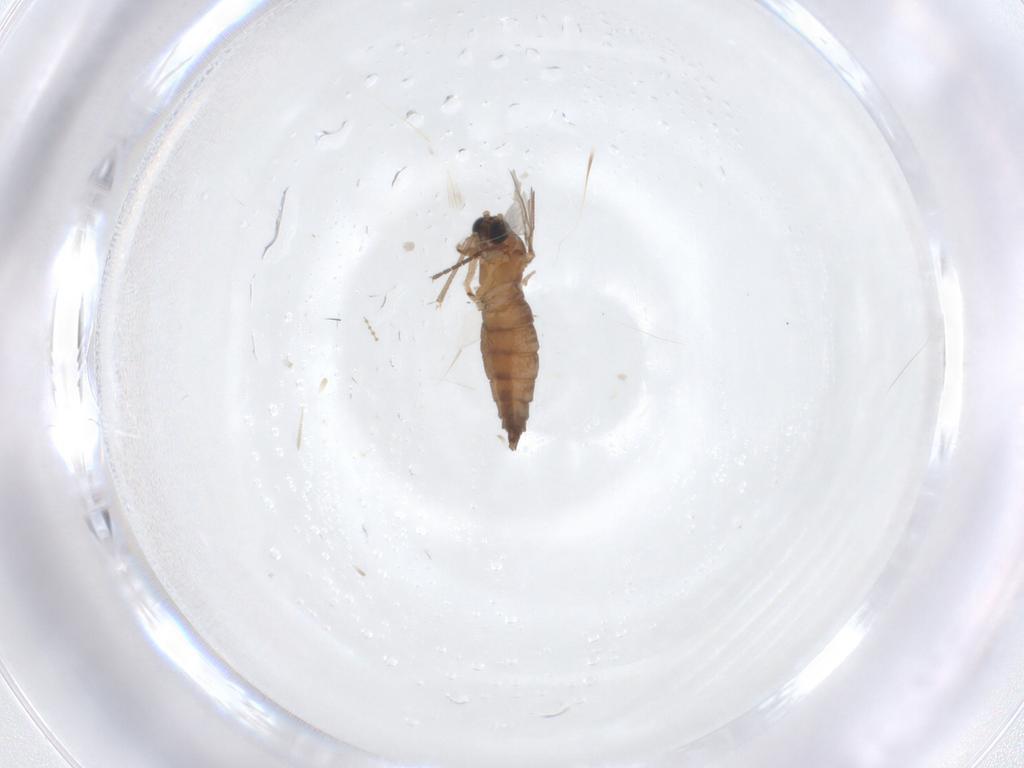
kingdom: Animalia
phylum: Arthropoda
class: Insecta
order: Diptera
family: Sciaridae
